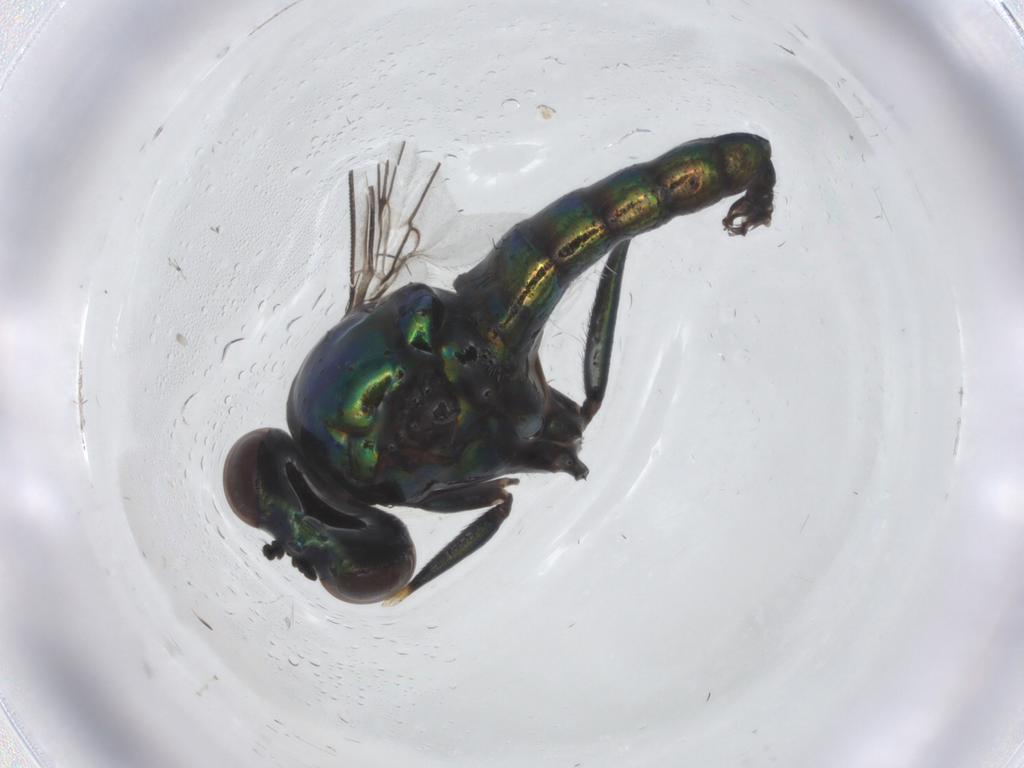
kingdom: Animalia
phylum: Arthropoda
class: Insecta
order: Diptera
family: Dolichopodidae
